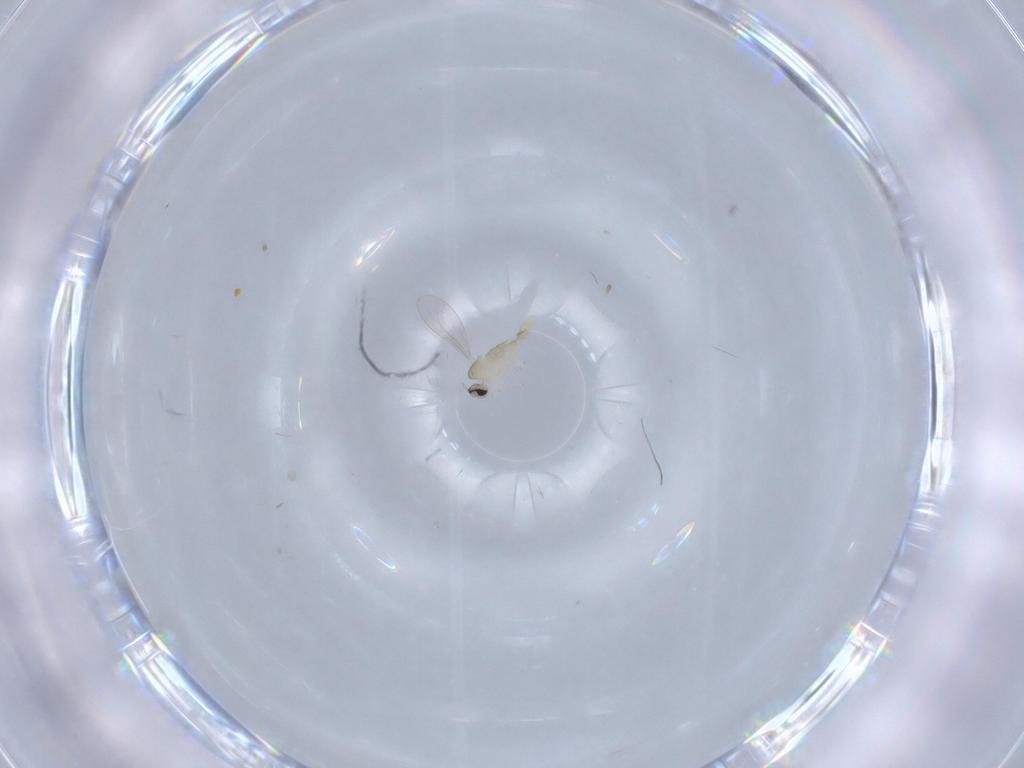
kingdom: Animalia
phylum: Arthropoda
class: Insecta
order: Diptera
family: Cecidomyiidae
